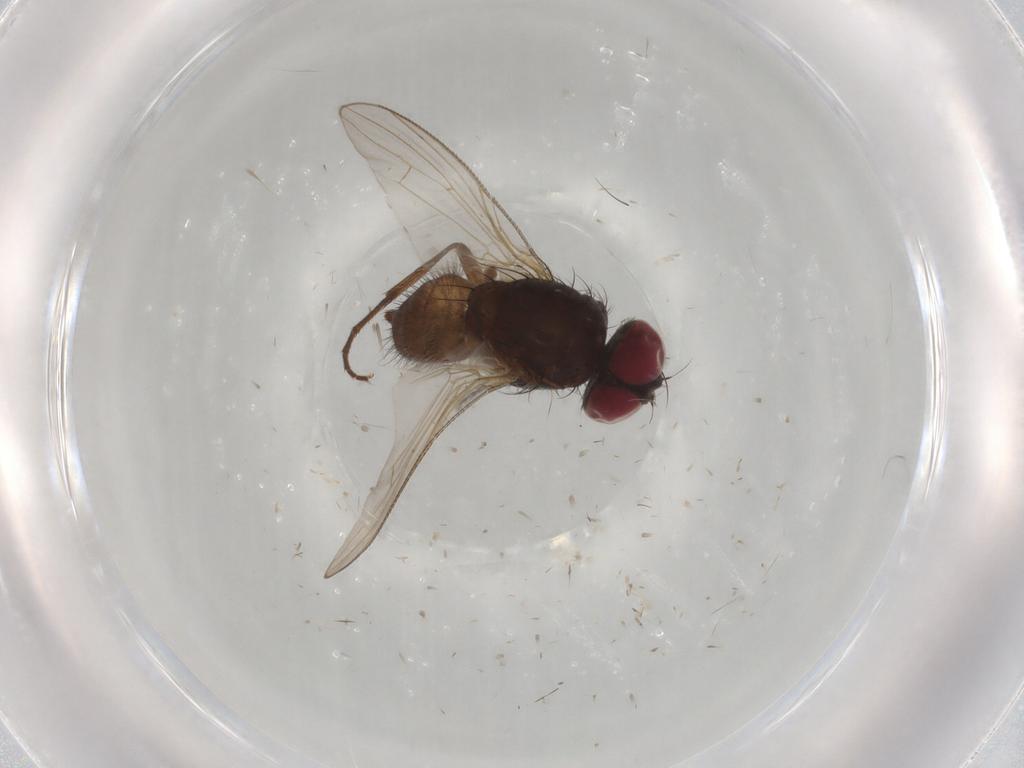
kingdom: Animalia
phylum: Arthropoda
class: Insecta
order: Diptera
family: Muscidae
